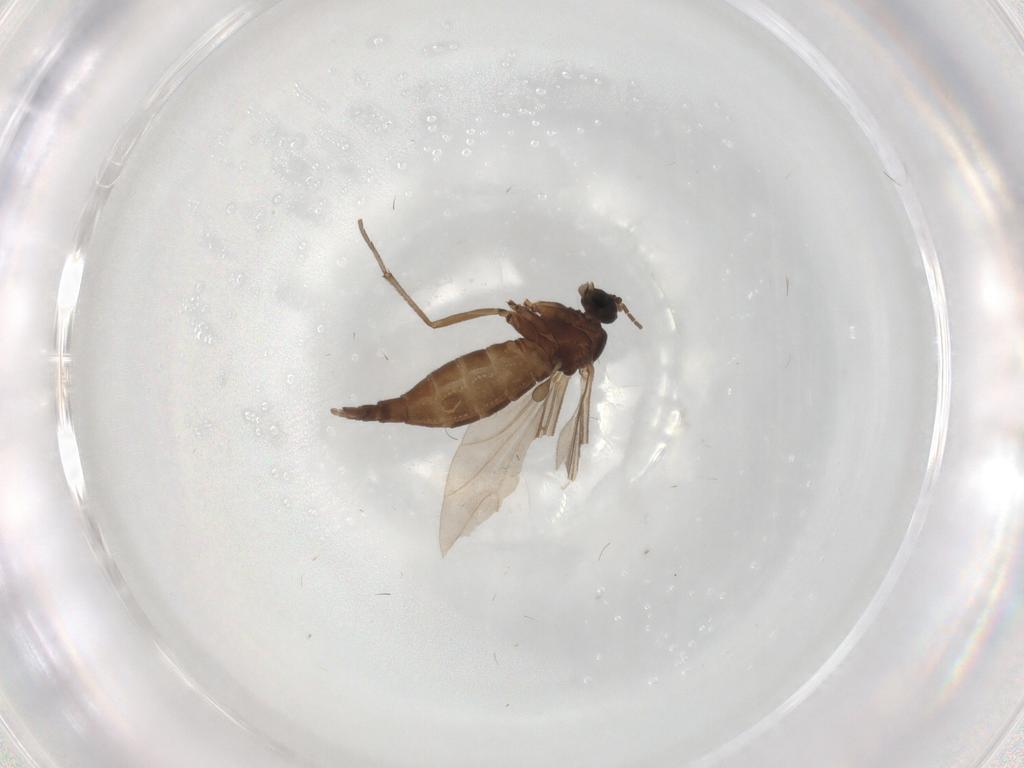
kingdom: Animalia
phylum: Arthropoda
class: Insecta
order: Diptera
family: Sciaridae
